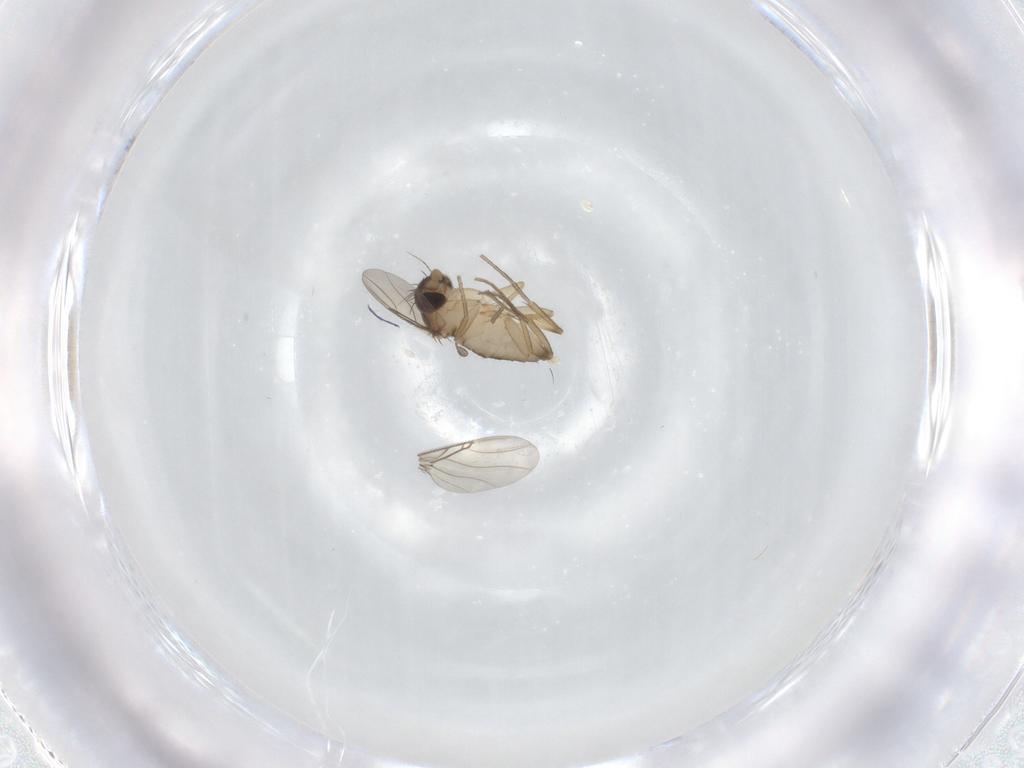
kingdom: Animalia
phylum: Arthropoda
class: Insecta
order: Diptera
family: Phoridae
